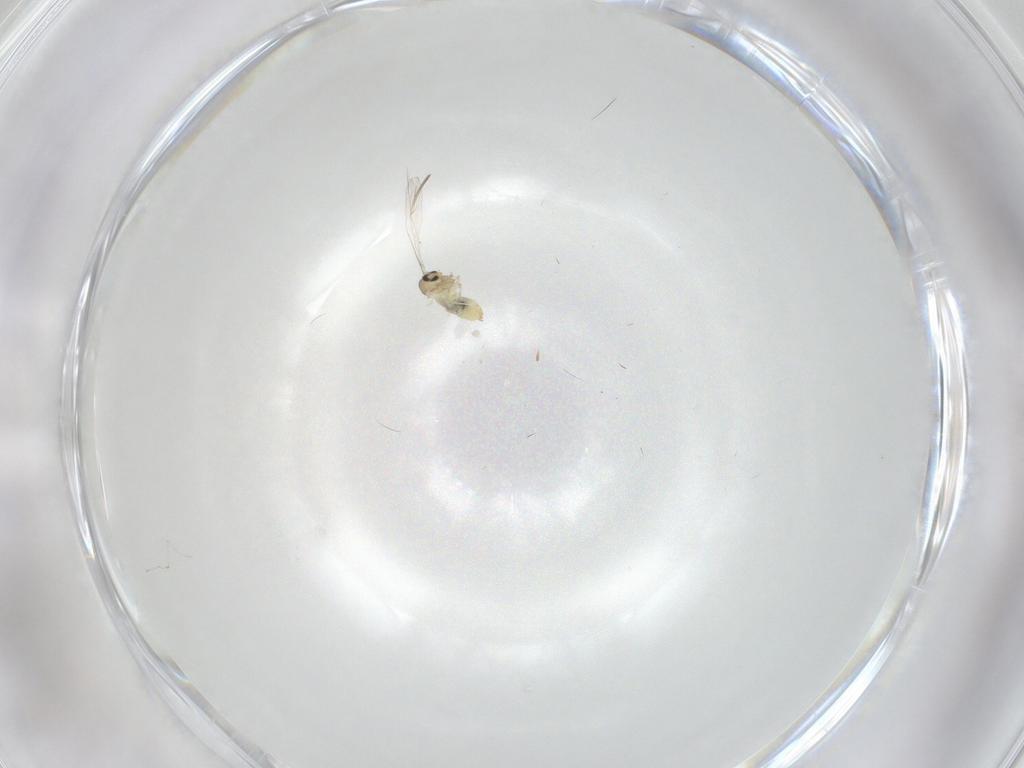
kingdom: Animalia
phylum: Arthropoda
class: Insecta
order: Diptera
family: Cecidomyiidae
